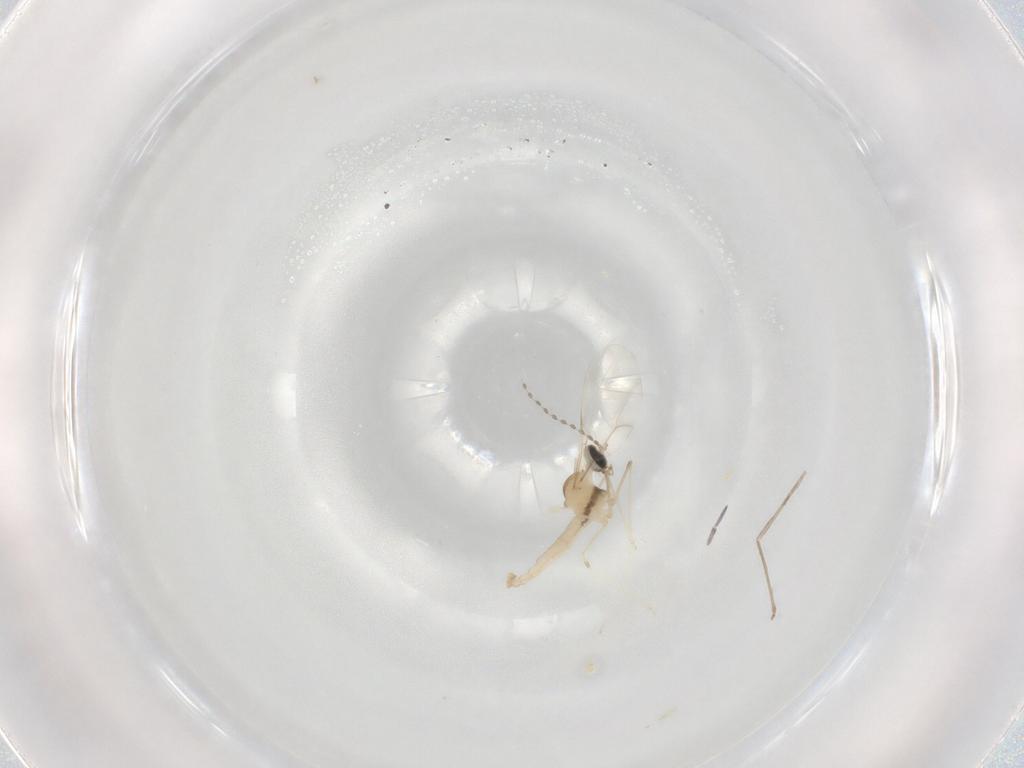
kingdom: Animalia
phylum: Arthropoda
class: Insecta
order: Diptera
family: Cecidomyiidae
